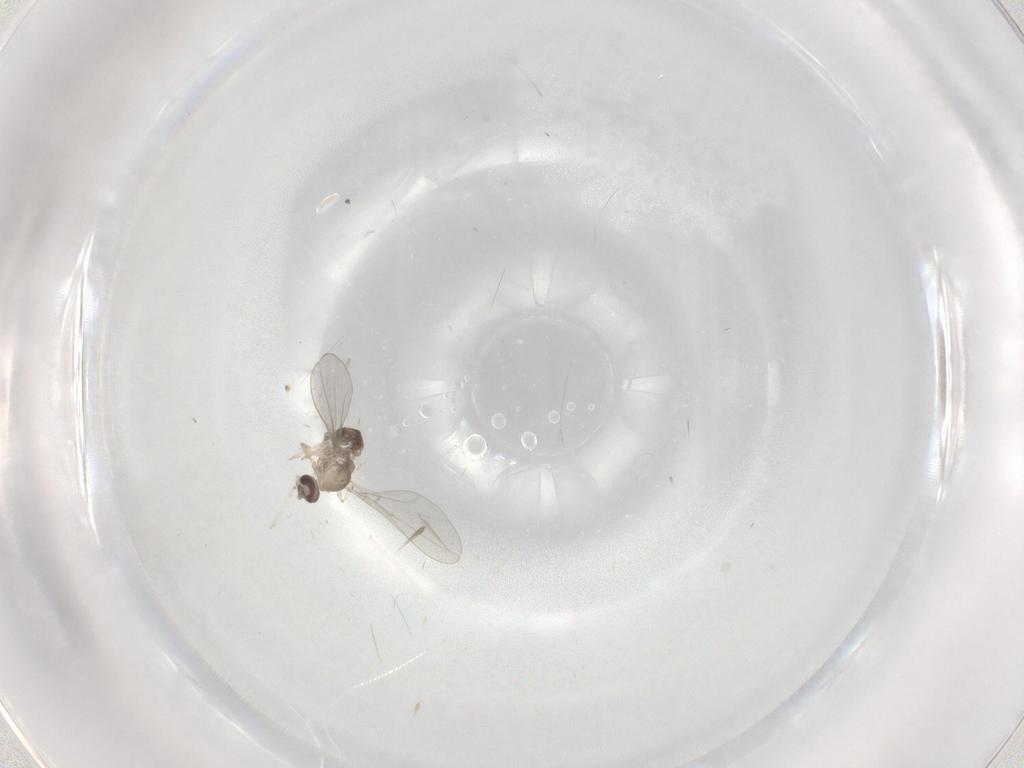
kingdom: Animalia
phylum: Arthropoda
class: Insecta
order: Diptera
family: Cecidomyiidae
